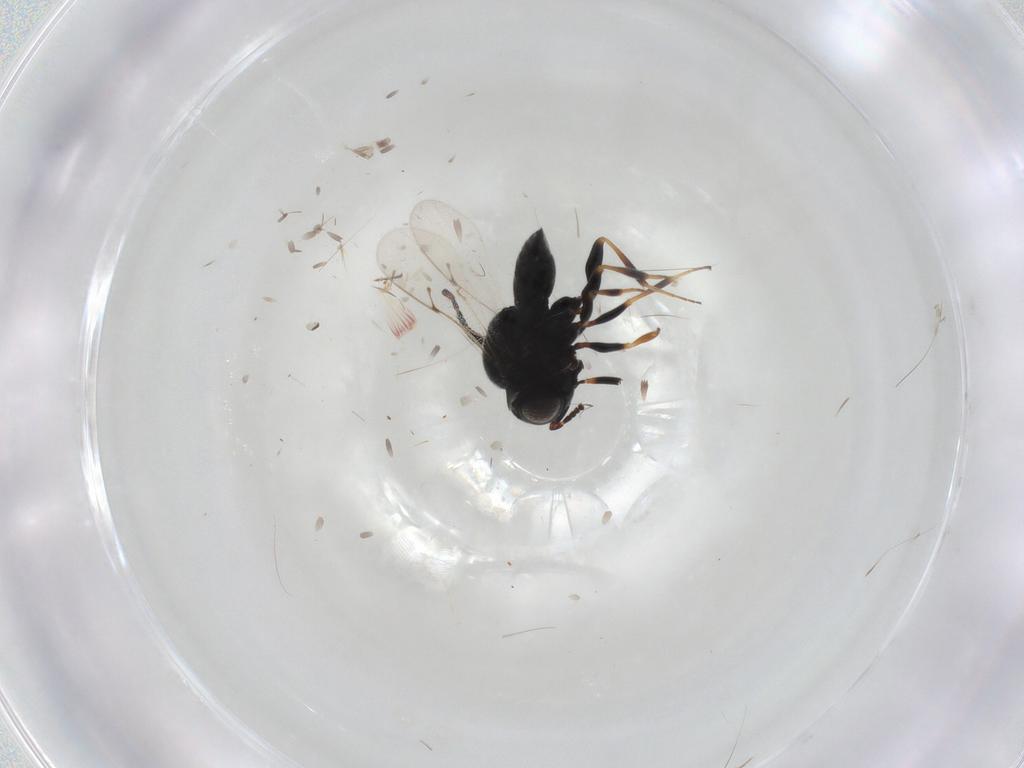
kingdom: Animalia
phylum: Arthropoda
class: Insecta
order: Hymenoptera
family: Scelionidae
